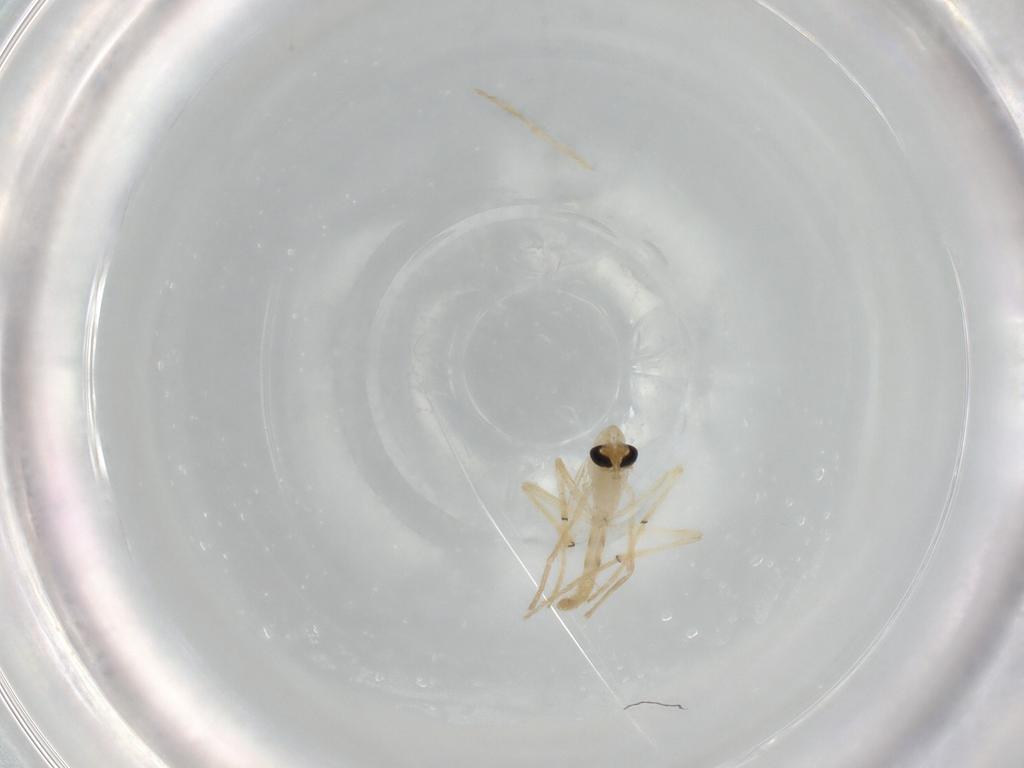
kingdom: Animalia
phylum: Arthropoda
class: Insecta
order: Diptera
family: Chironomidae
